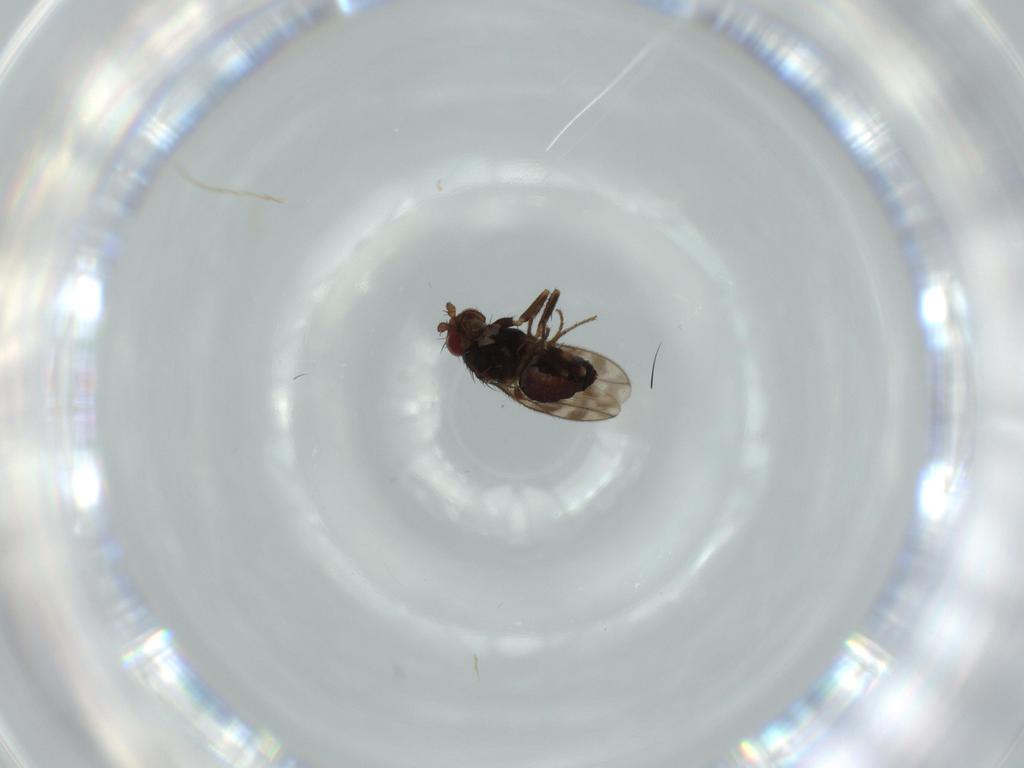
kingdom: Animalia
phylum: Arthropoda
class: Insecta
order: Diptera
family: Sphaeroceridae
